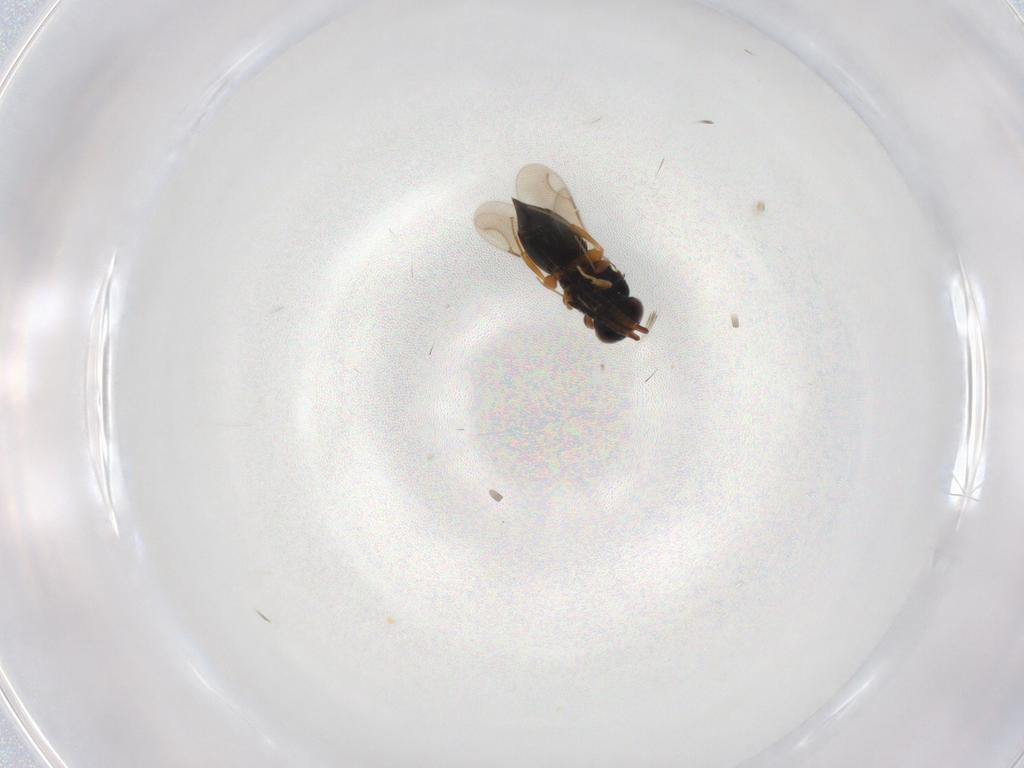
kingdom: Animalia
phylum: Arthropoda
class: Insecta
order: Hymenoptera
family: Ceraphronidae
